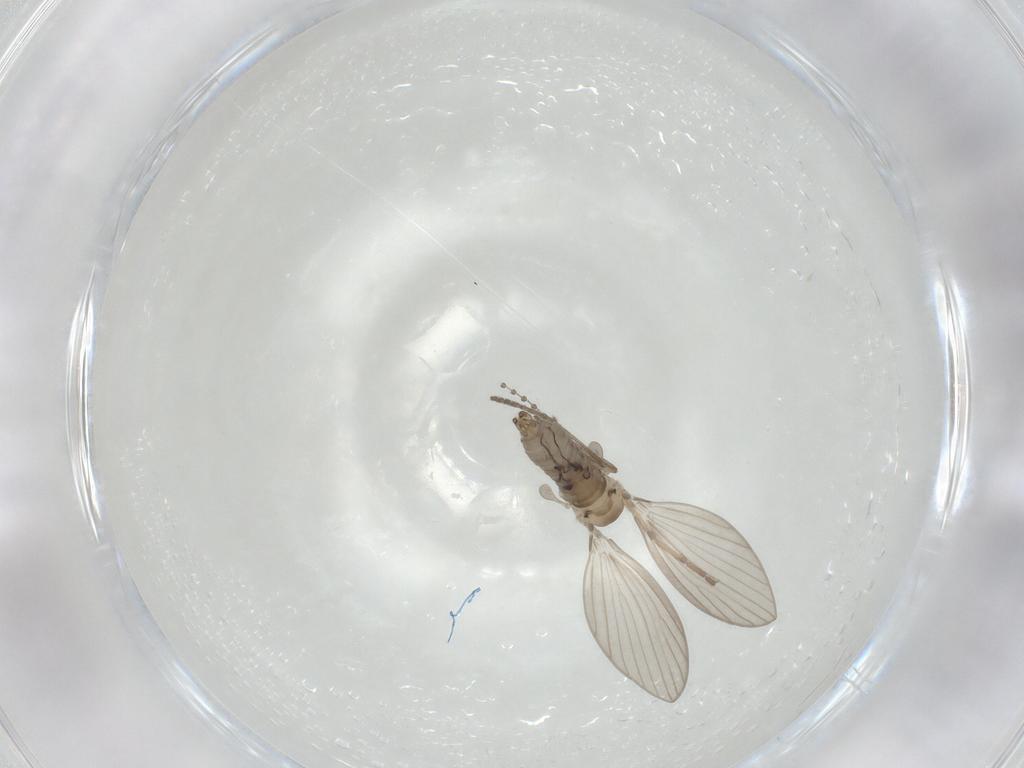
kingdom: Animalia
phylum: Arthropoda
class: Insecta
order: Diptera
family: Psychodidae
